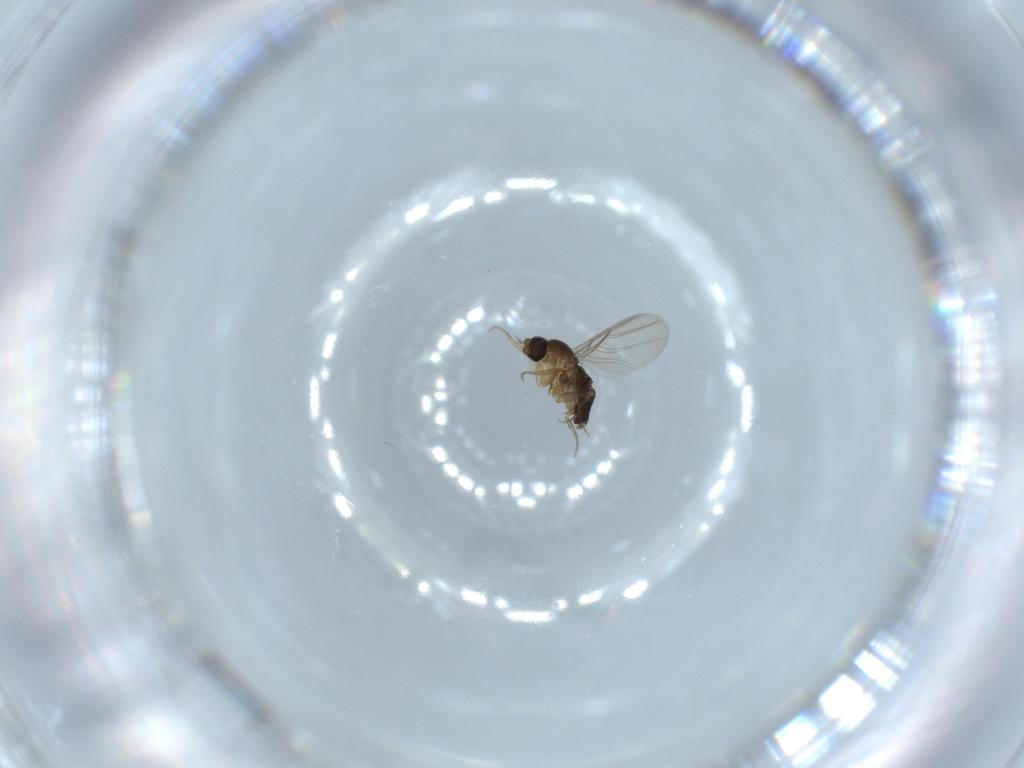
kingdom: Animalia
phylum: Arthropoda
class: Insecta
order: Diptera
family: Phoridae
